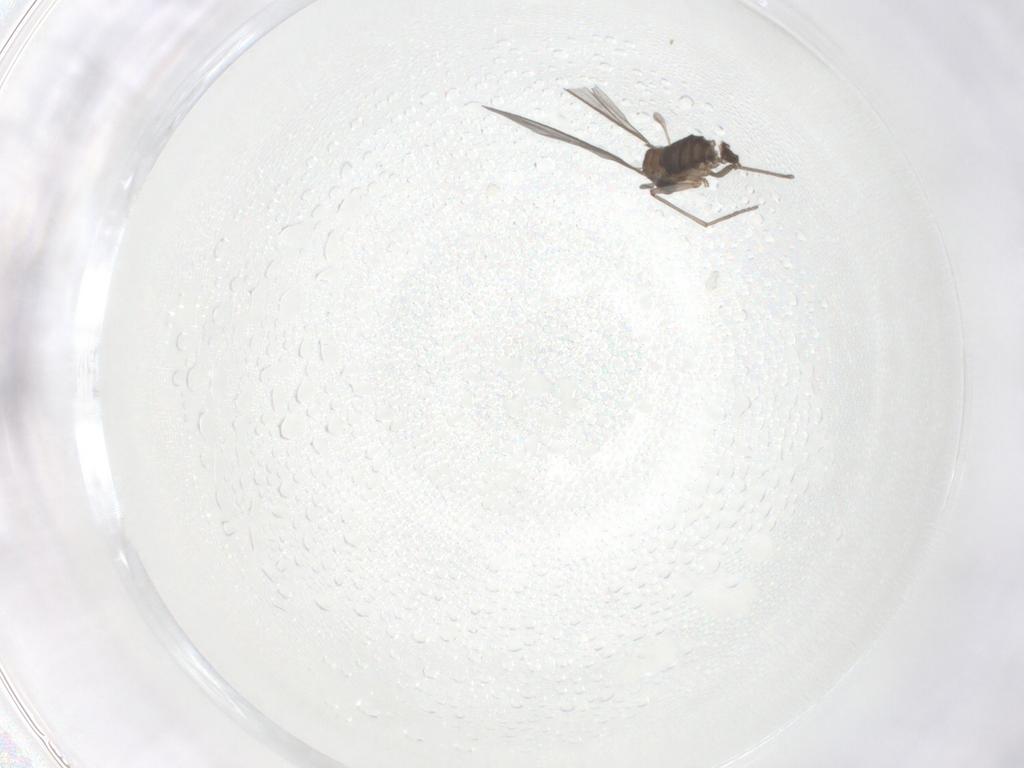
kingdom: Animalia
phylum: Arthropoda
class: Insecta
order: Diptera
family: Sciaridae
